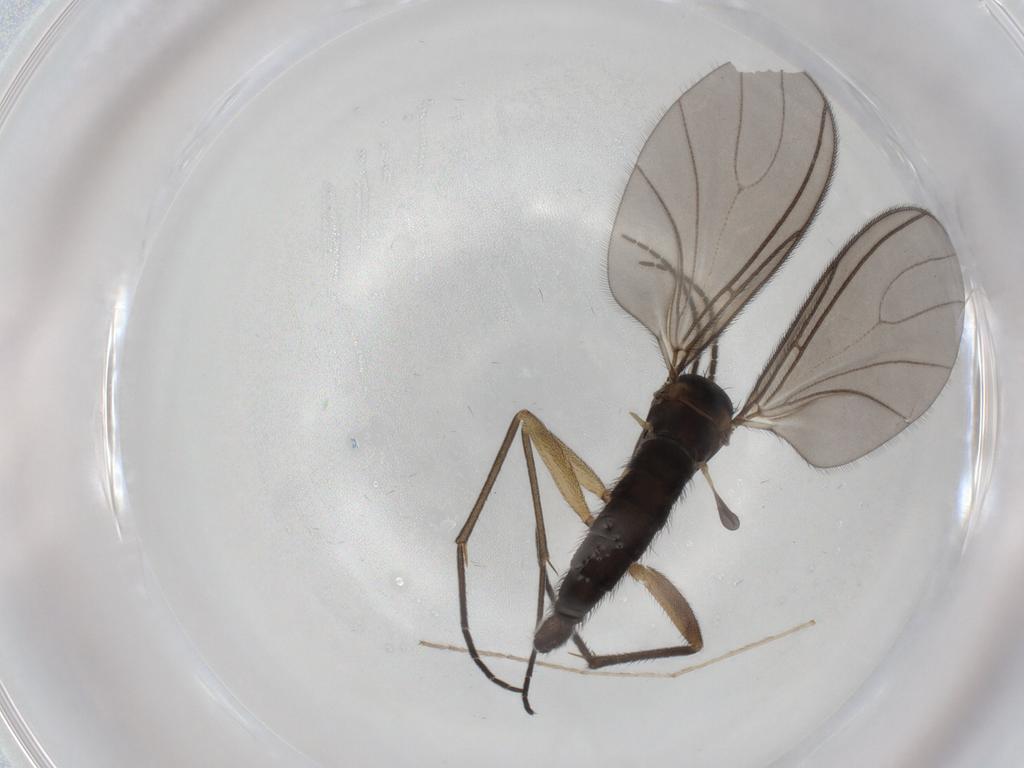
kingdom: Animalia
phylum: Arthropoda
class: Insecta
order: Diptera
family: Sciaridae
